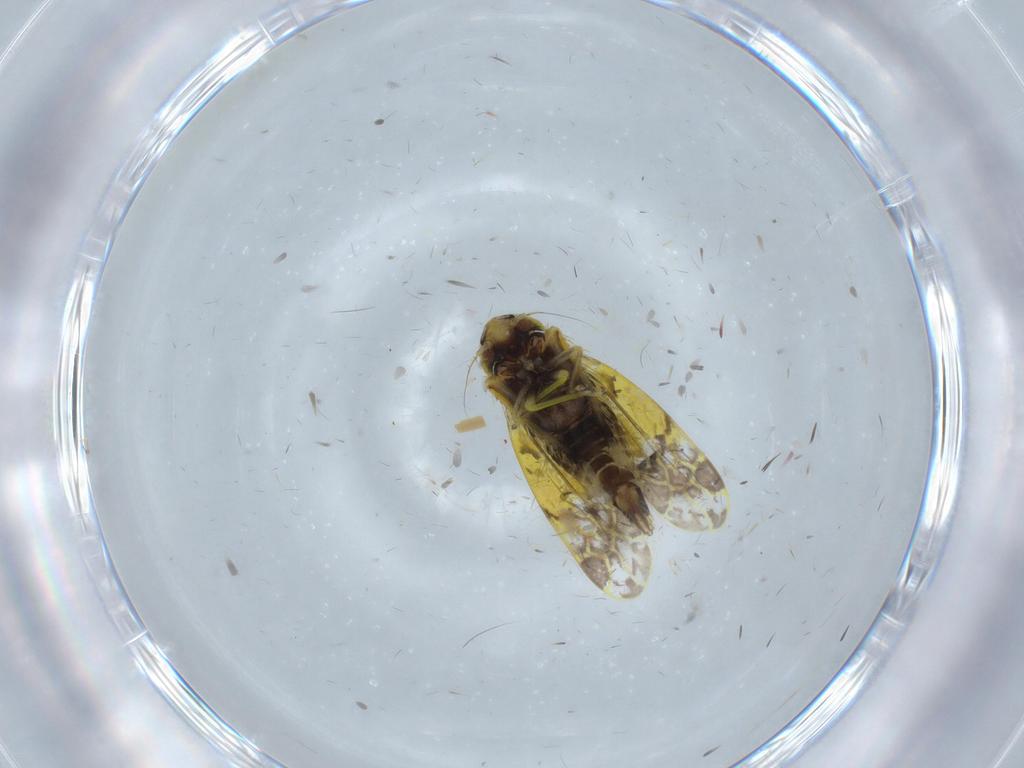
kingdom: Animalia
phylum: Arthropoda
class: Insecta
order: Hemiptera
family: Cicadellidae
